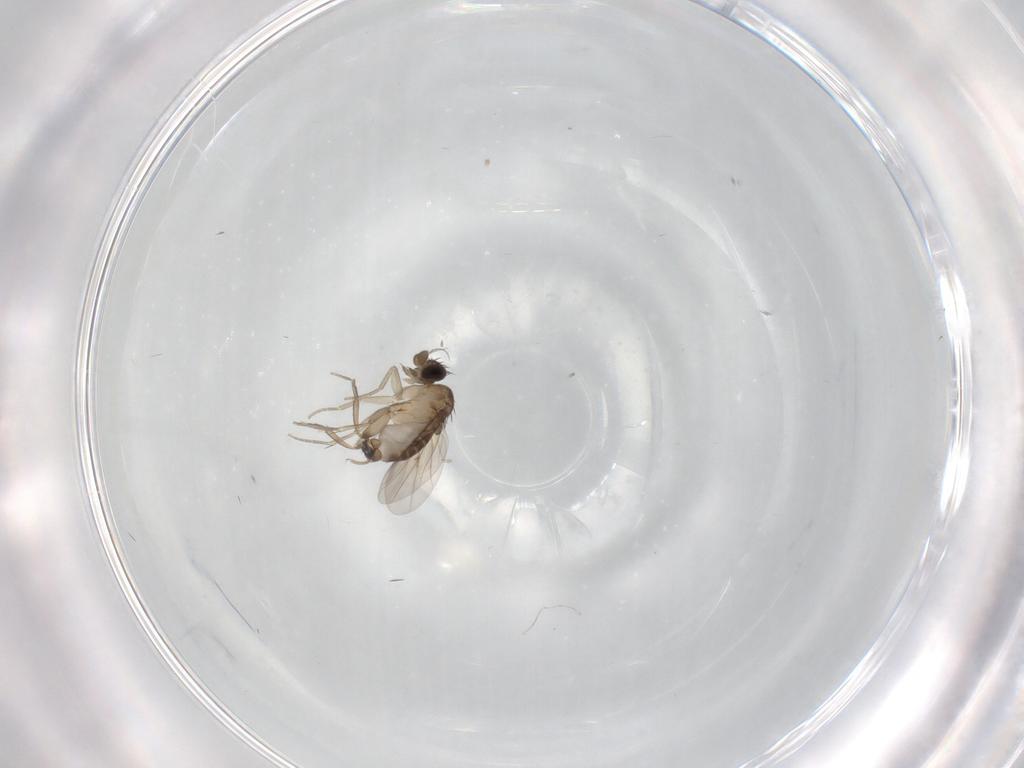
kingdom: Animalia
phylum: Arthropoda
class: Insecta
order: Diptera
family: Phoridae
